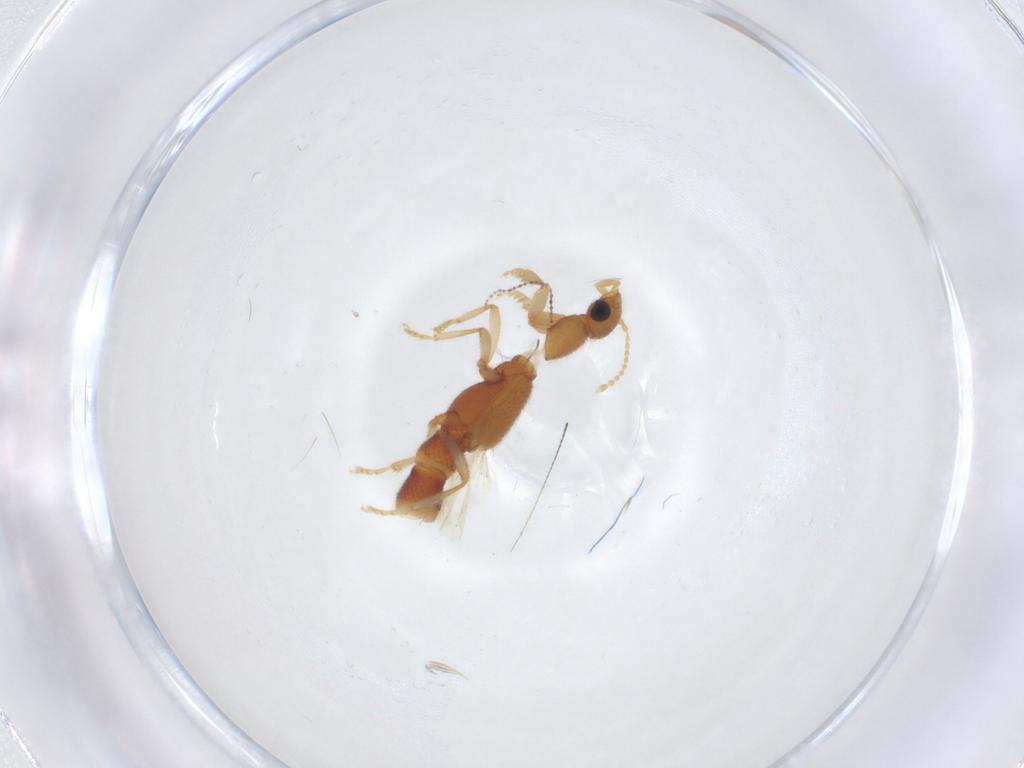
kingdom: Animalia
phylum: Arthropoda
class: Insecta
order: Coleoptera
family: Staphylinidae
